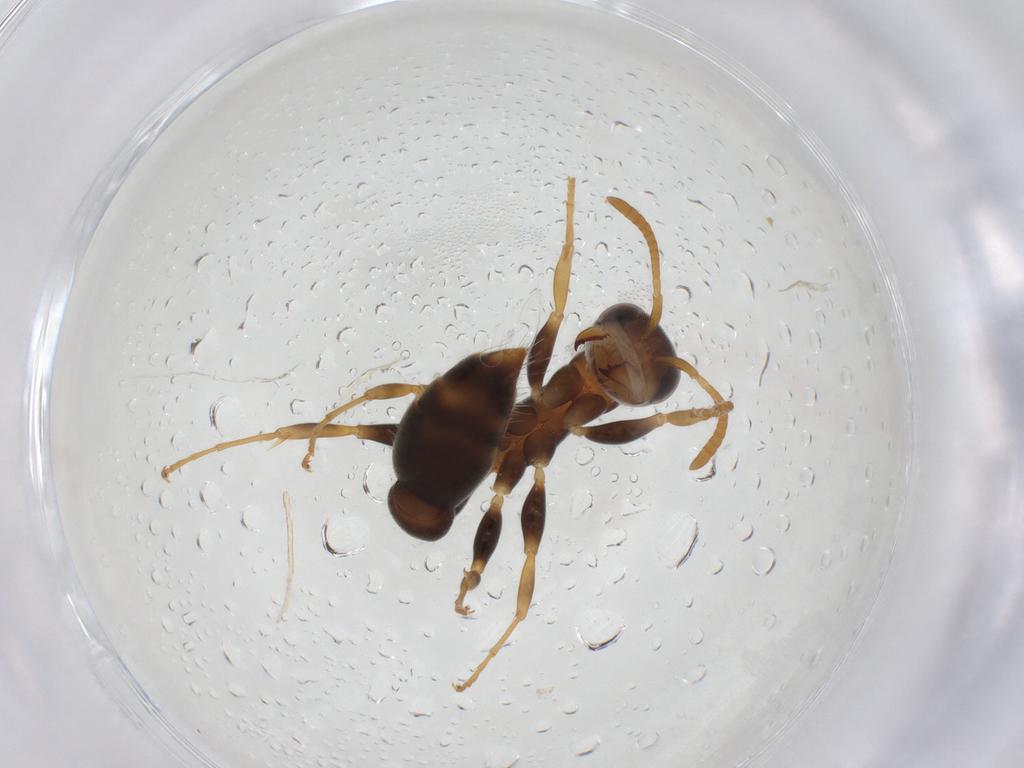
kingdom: Animalia
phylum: Arthropoda
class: Insecta
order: Hymenoptera
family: Formicidae
